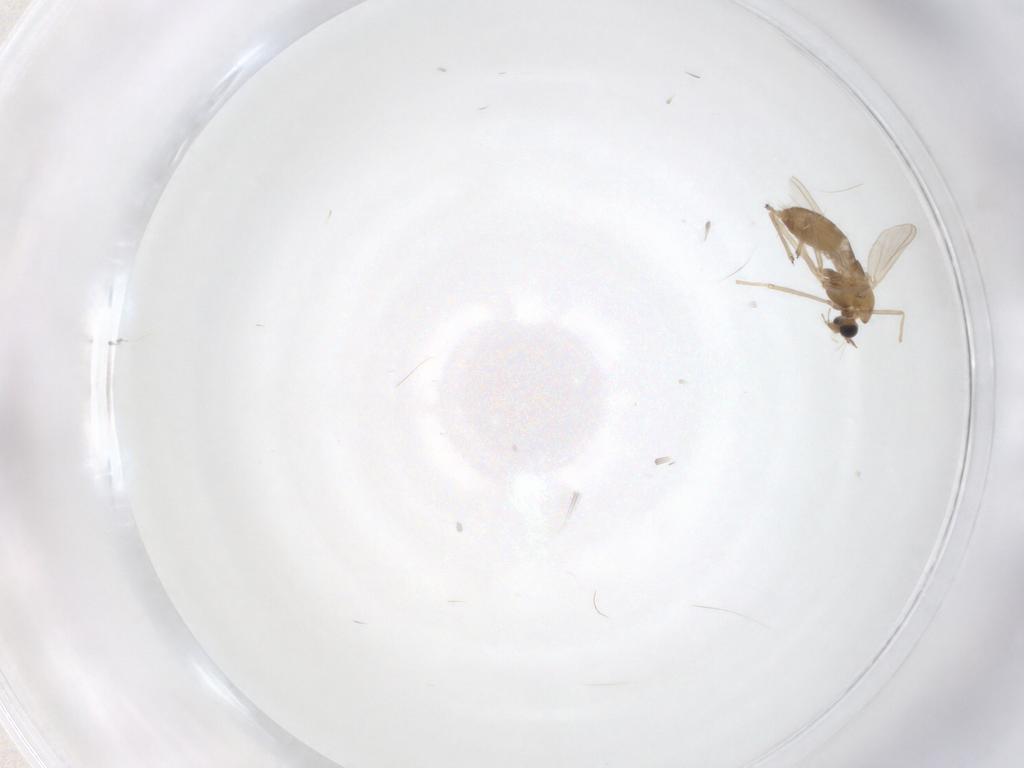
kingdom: Animalia
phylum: Arthropoda
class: Insecta
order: Diptera
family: Chironomidae
